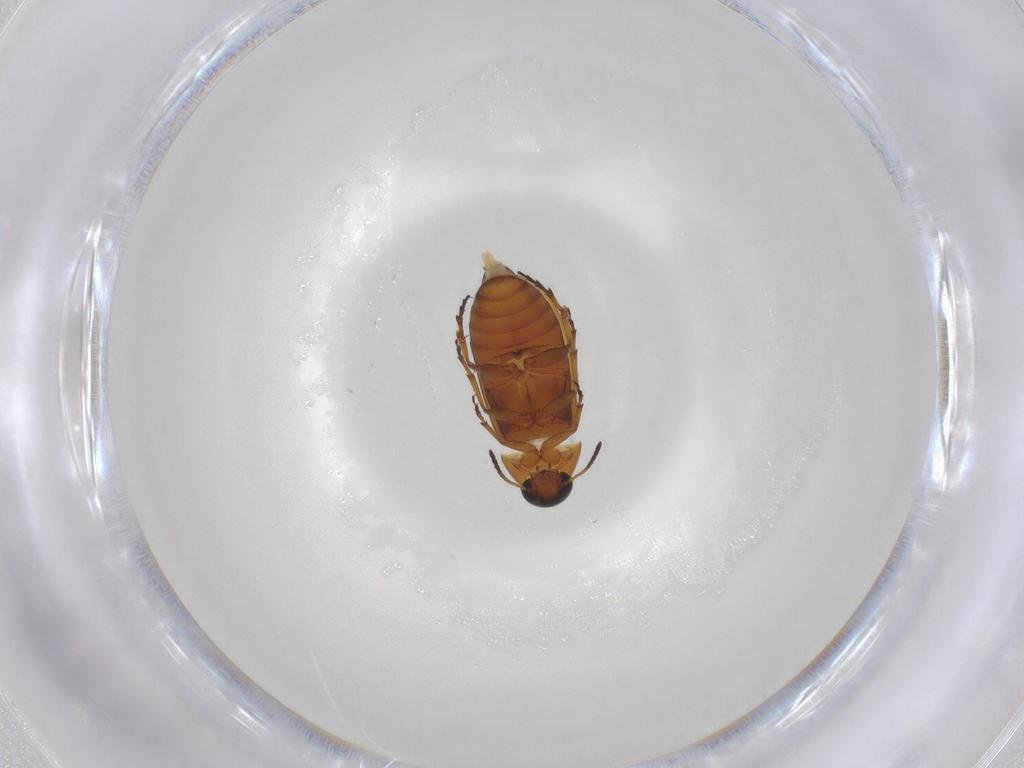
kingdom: Animalia
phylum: Arthropoda
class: Insecta
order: Coleoptera
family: Scraptiidae
